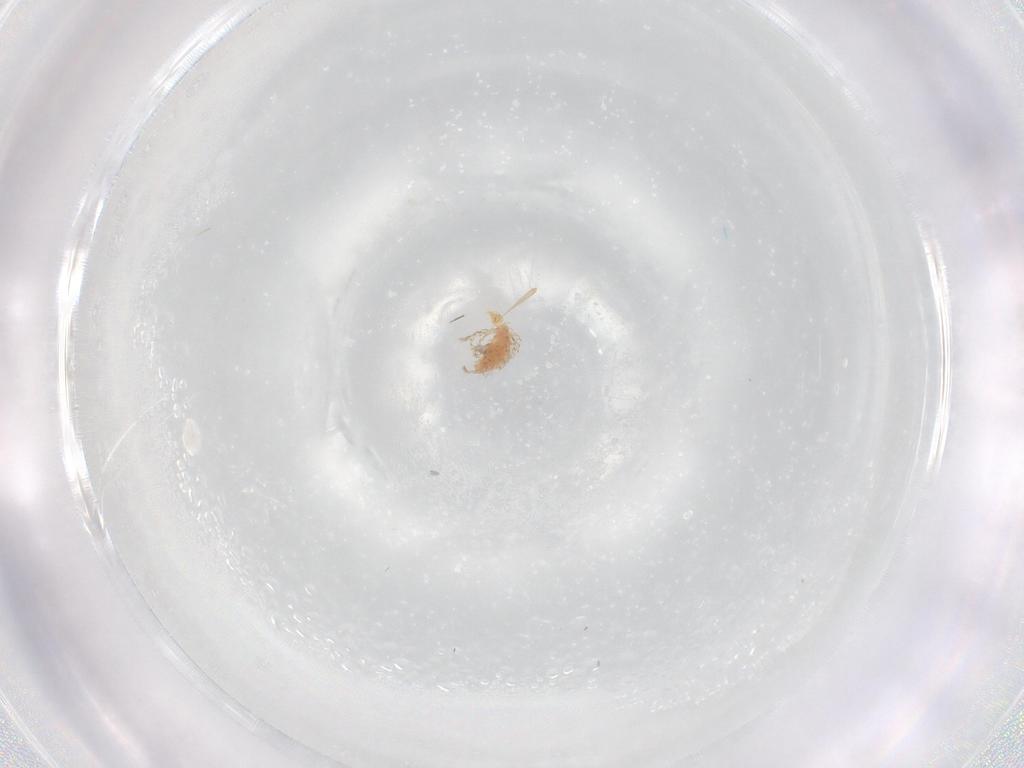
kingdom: Animalia
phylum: Arthropoda
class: Arachnida
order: Trombidiformes
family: Erythraeidae
